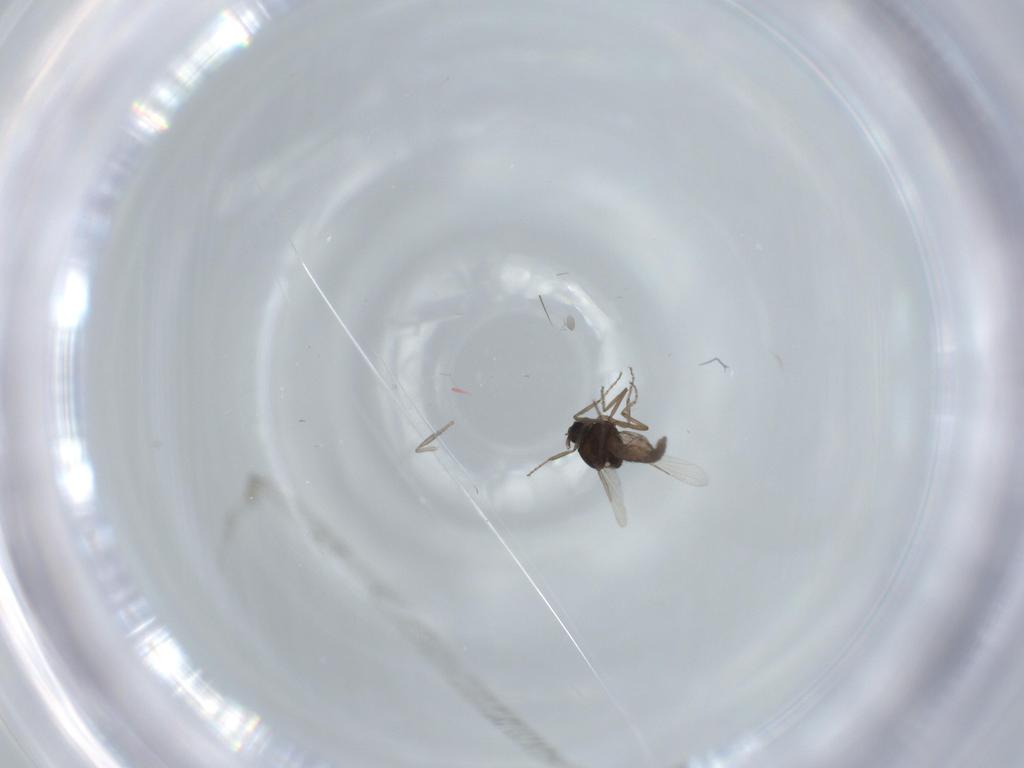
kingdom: Animalia
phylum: Arthropoda
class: Insecta
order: Diptera
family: Ceratopogonidae
